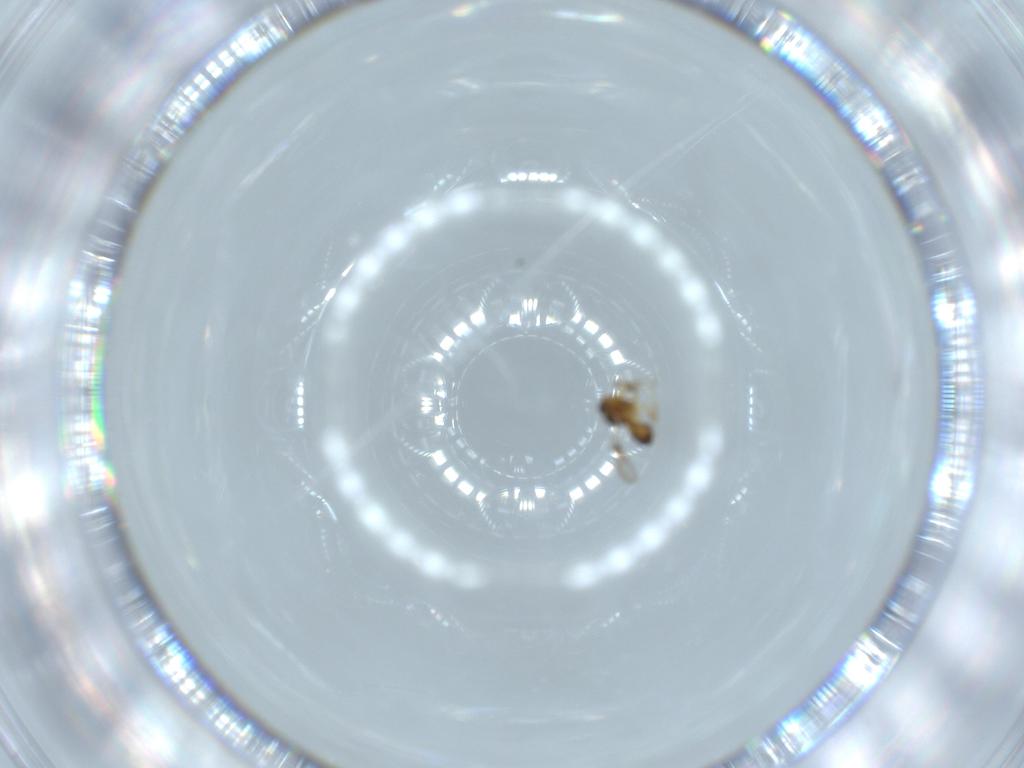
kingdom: Animalia
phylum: Arthropoda
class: Insecta
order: Hymenoptera
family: Ceraphronidae
